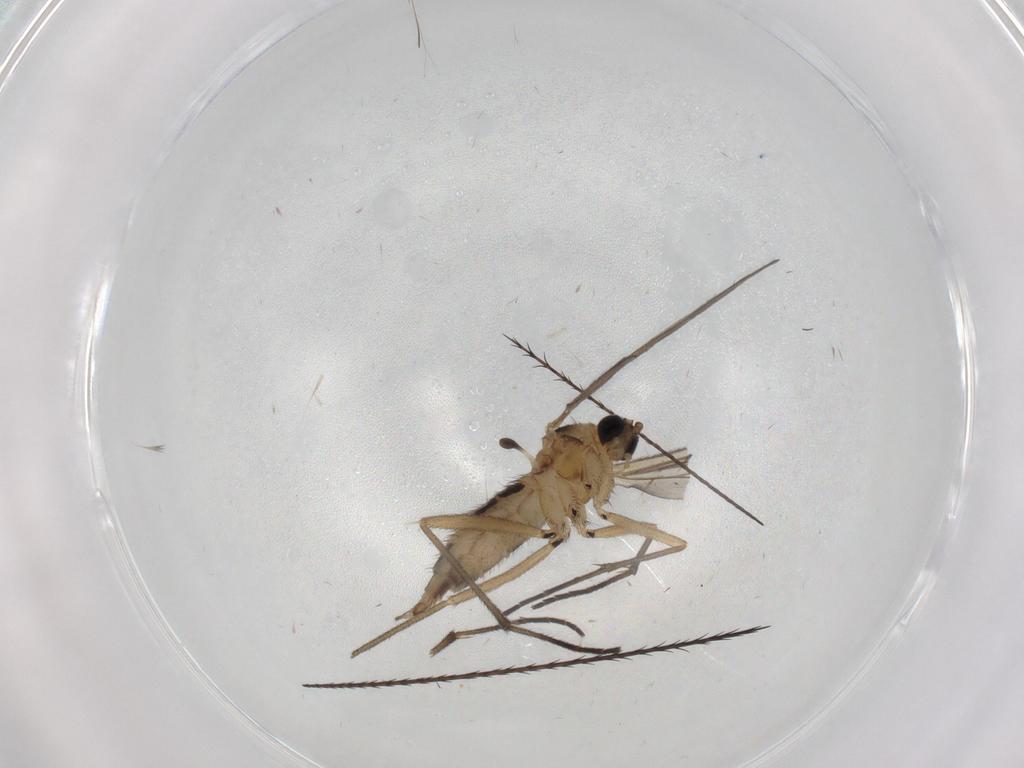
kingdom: Animalia
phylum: Arthropoda
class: Insecta
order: Diptera
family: Sciaridae
